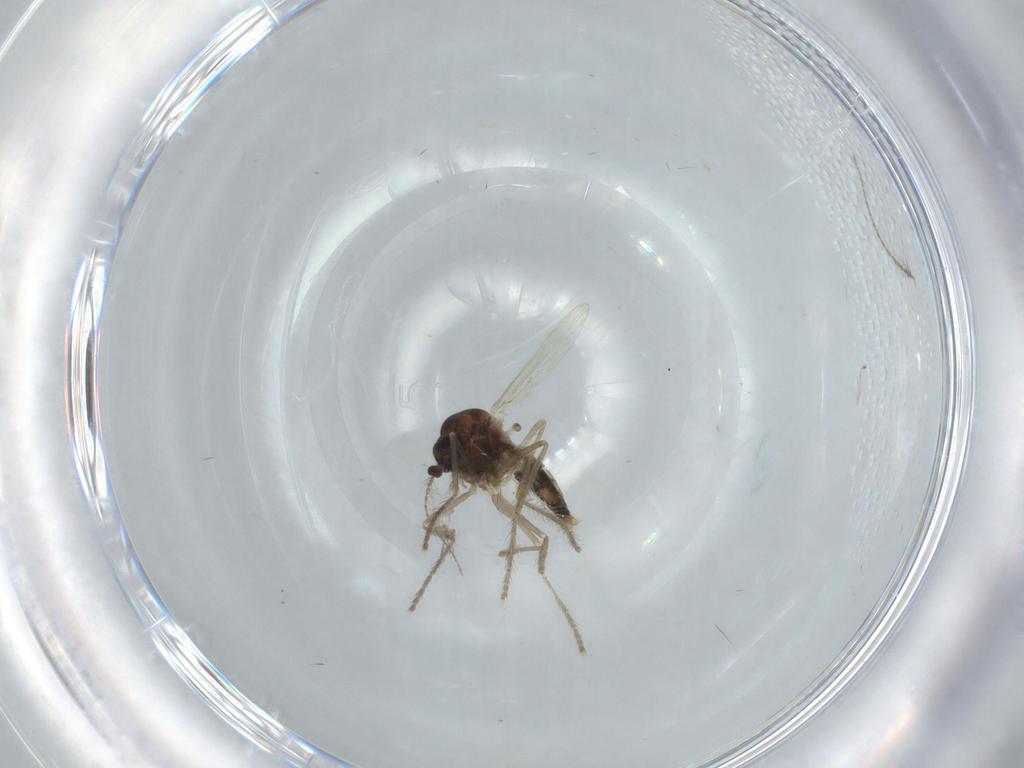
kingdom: Animalia
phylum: Arthropoda
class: Insecta
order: Diptera
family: Corethrellidae
